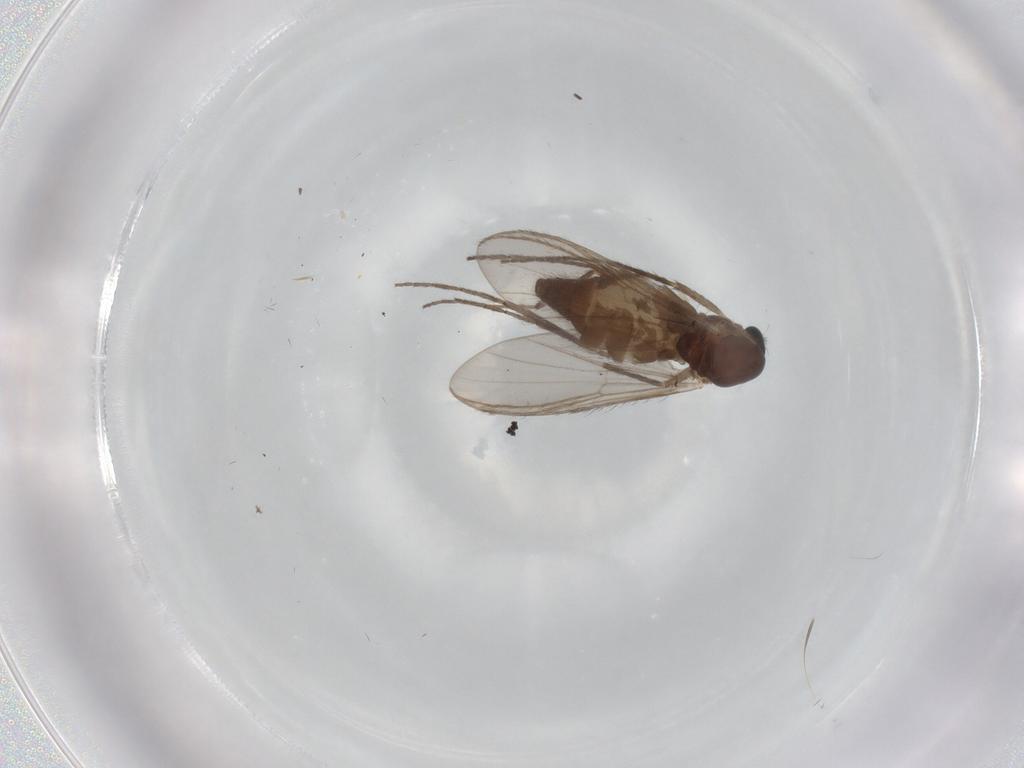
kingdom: Animalia
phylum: Arthropoda
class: Insecta
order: Diptera
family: Chironomidae
